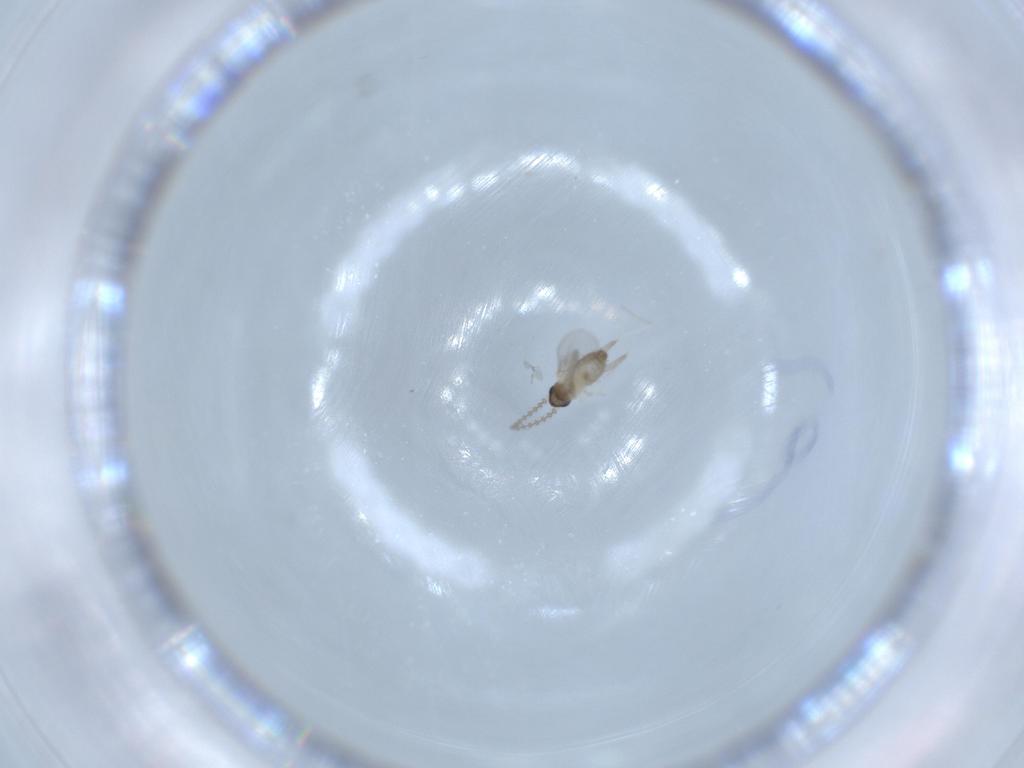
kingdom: Animalia
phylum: Arthropoda
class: Insecta
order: Diptera
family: Cecidomyiidae
